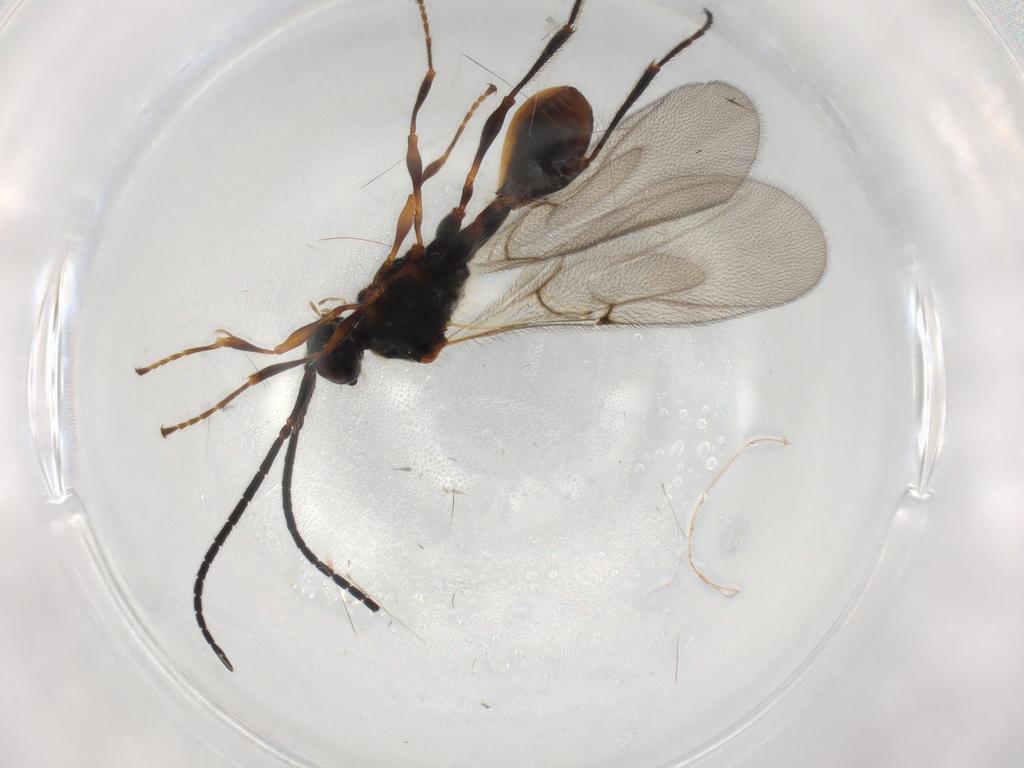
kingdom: Animalia
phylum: Arthropoda
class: Insecta
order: Hymenoptera
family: Diapriidae
